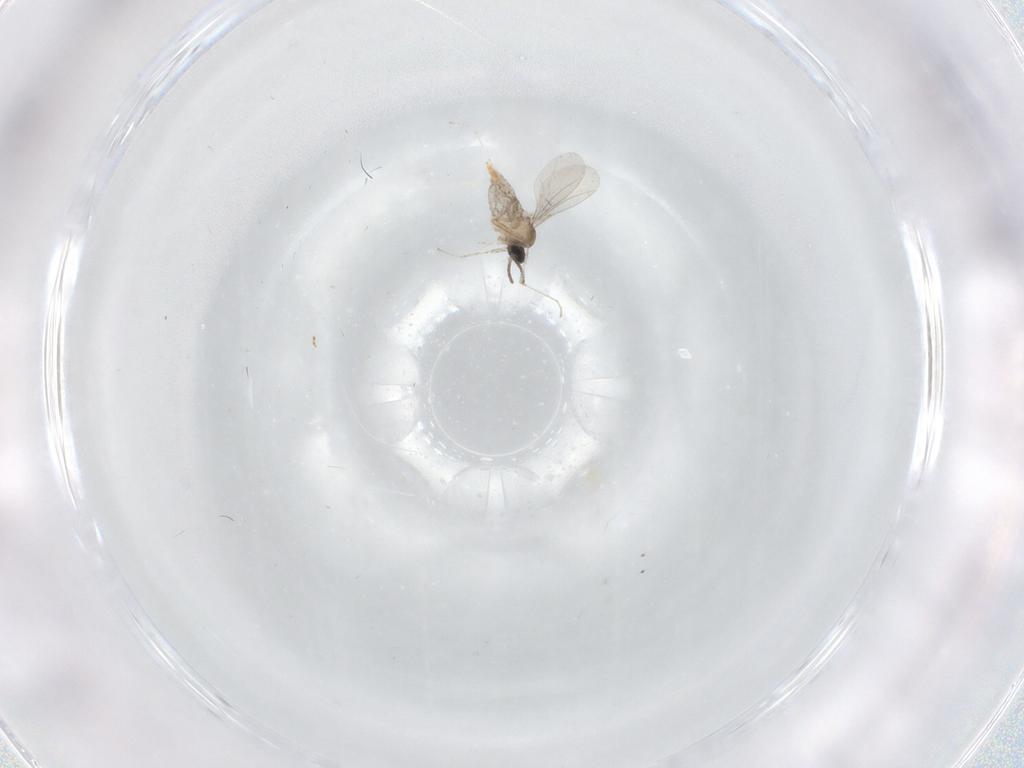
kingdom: Animalia
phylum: Arthropoda
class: Insecta
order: Diptera
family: Cecidomyiidae
